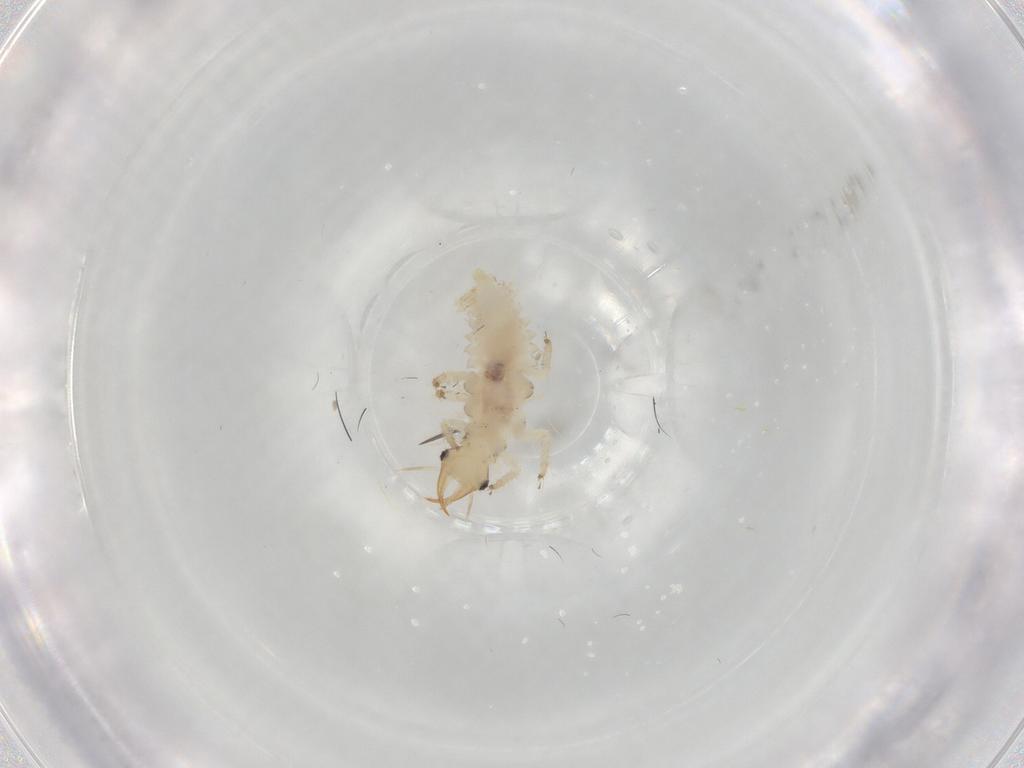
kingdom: Animalia
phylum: Arthropoda
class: Insecta
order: Neuroptera
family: Chrysopidae
